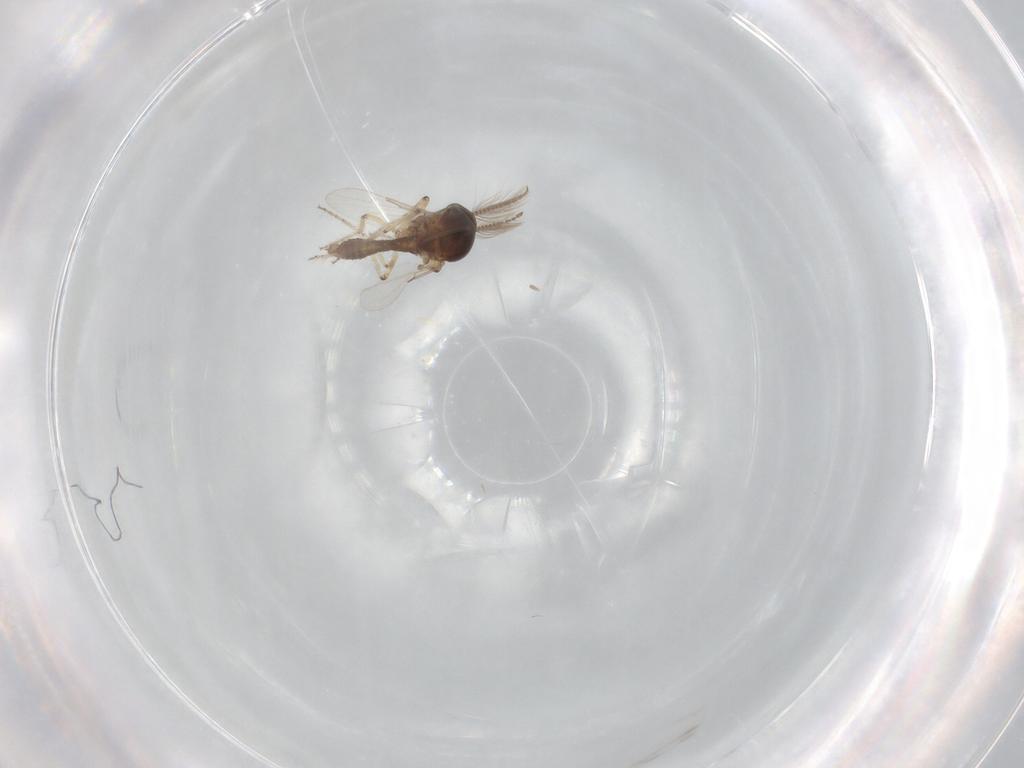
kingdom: Animalia
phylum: Arthropoda
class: Insecta
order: Diptera
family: Ceratopogonidae
